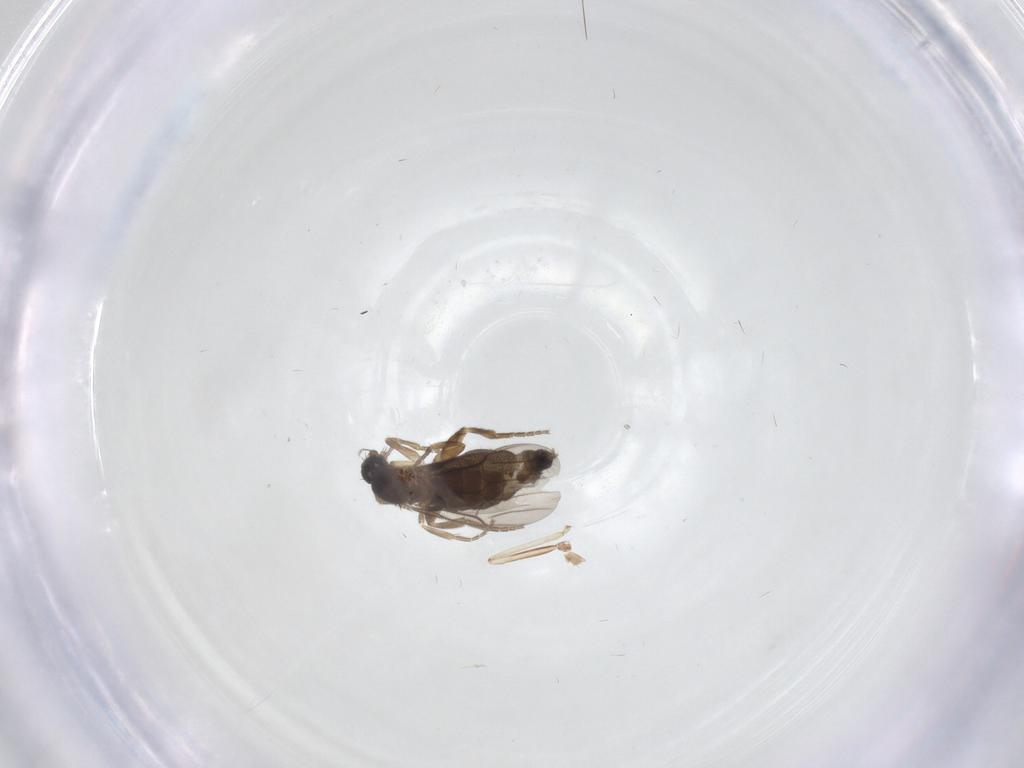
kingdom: Animalia
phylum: Arthropoda
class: Insecta
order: Diptera
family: Phoridae
